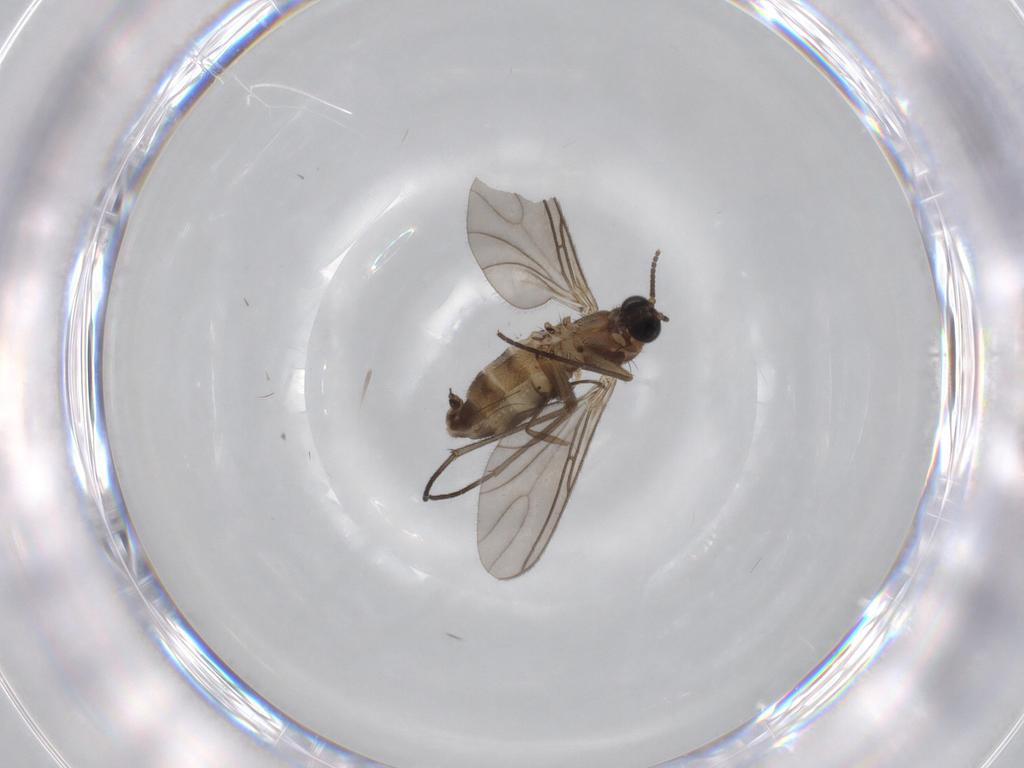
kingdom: Animalia
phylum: Arthropoda
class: Insecta
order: Diptera
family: Sciaridae
